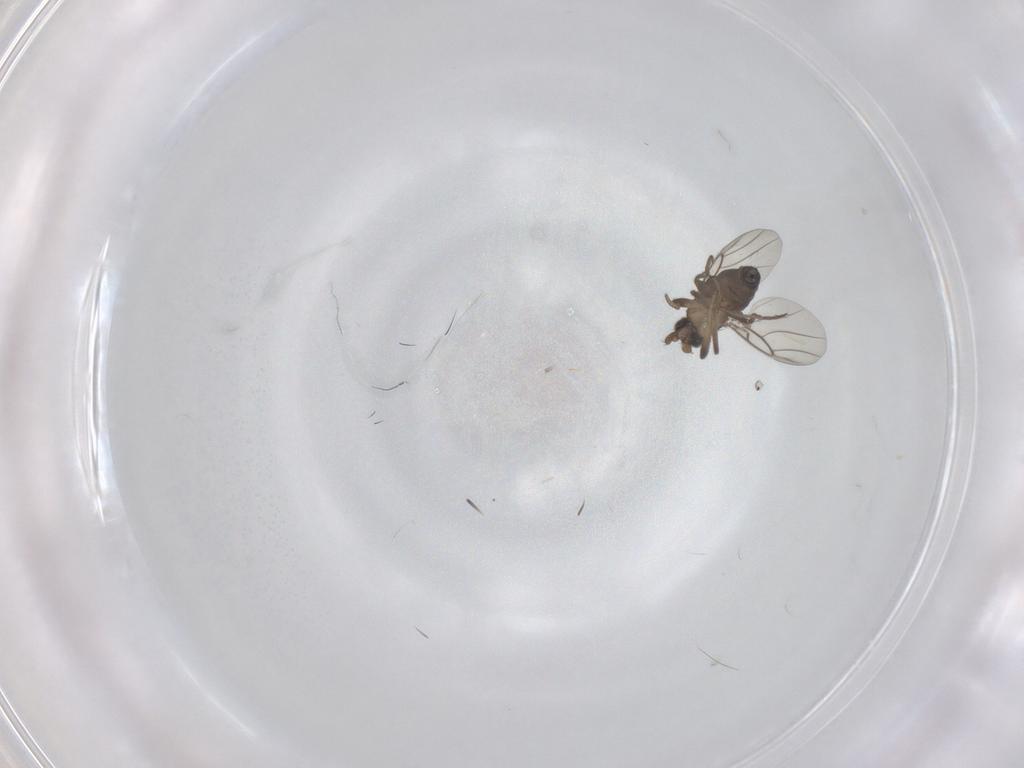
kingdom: Animalia
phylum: Arthropoda
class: Insecta
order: Diptera
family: Phoridae
